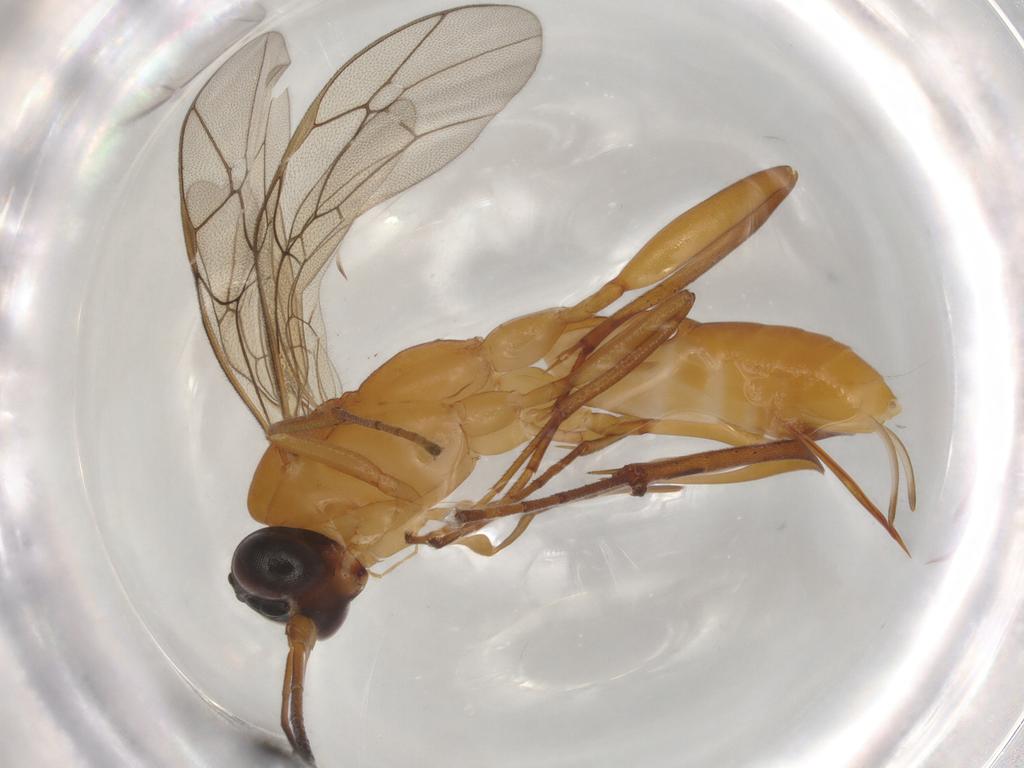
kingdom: Animalia
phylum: Arthropoda
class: Insecta
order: Hymenoptera
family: Ichneumonidae
